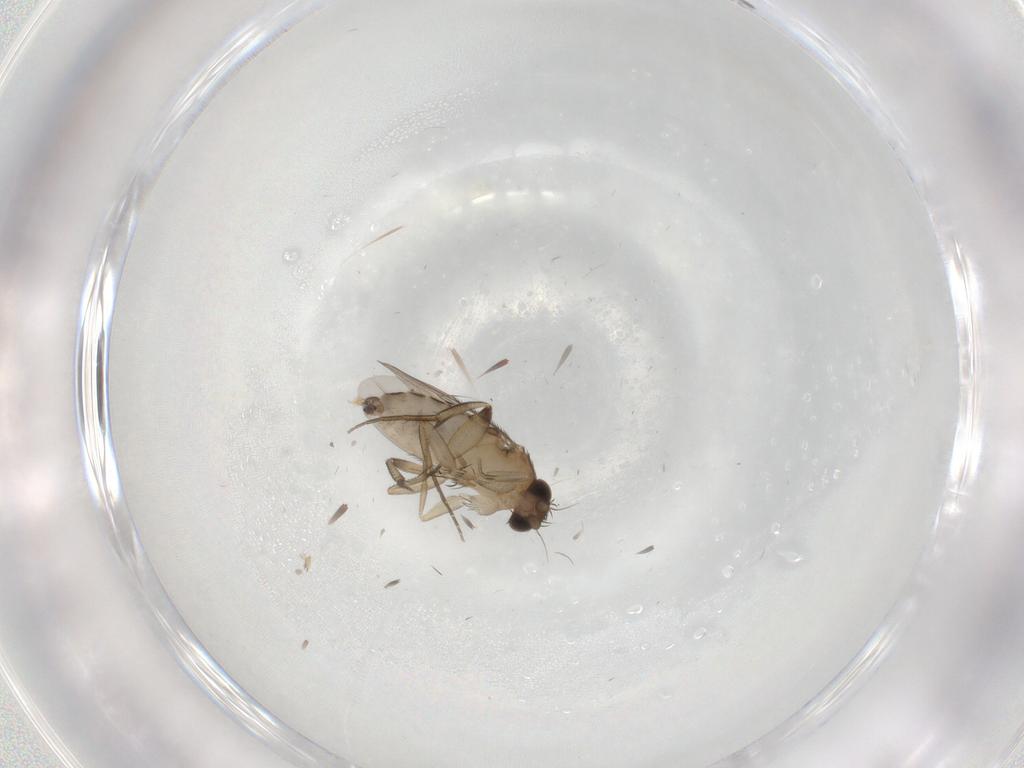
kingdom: Animalia
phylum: Arthropoda
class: Insecta
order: Diptera
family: Phoridae
